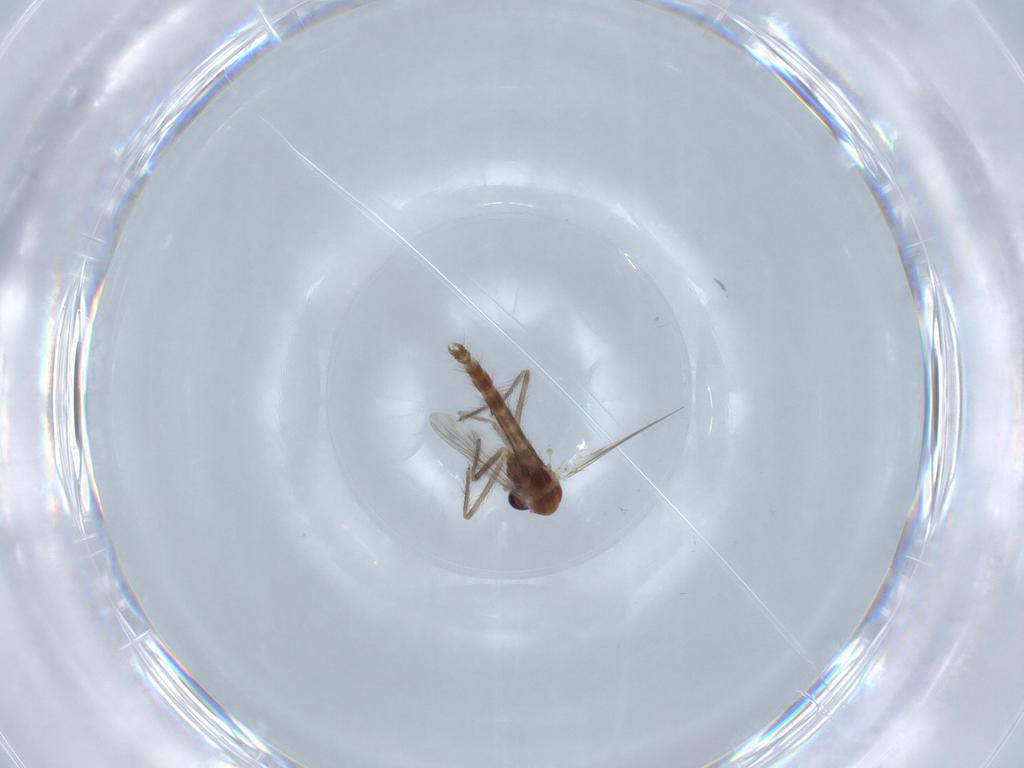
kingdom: Animalia
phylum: Arthropoda
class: Insecta
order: Diptera
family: Chironomidae
